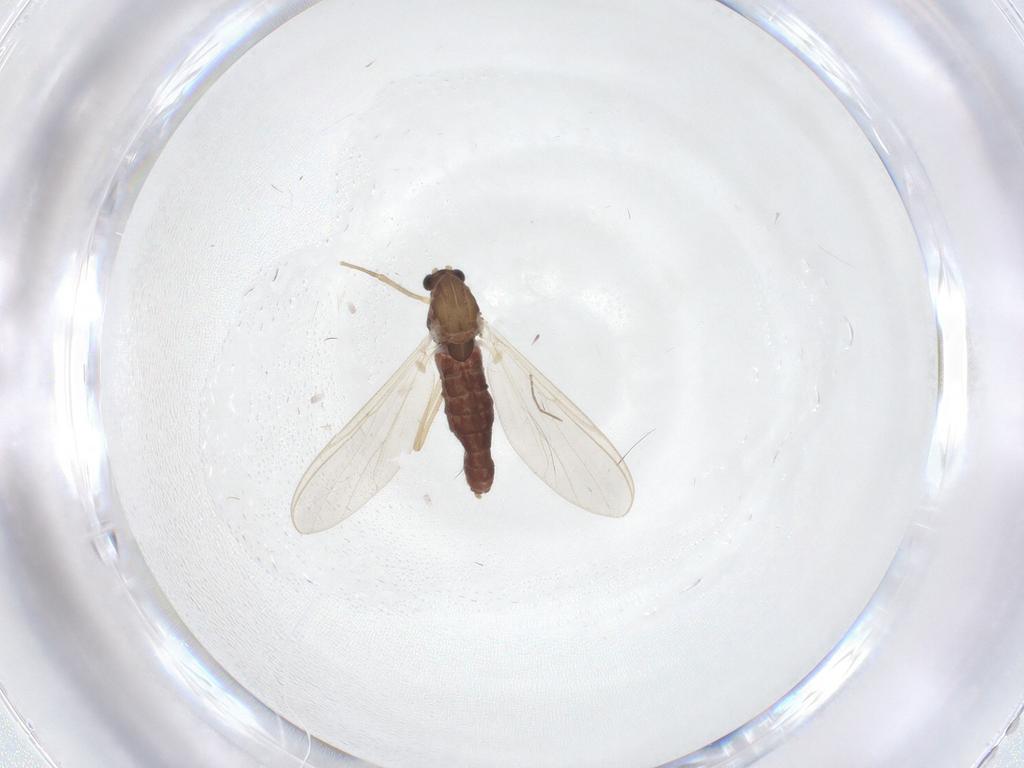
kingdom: Animalia
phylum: Arthropoda
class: Insecta
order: Diptera
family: Chironomidae
